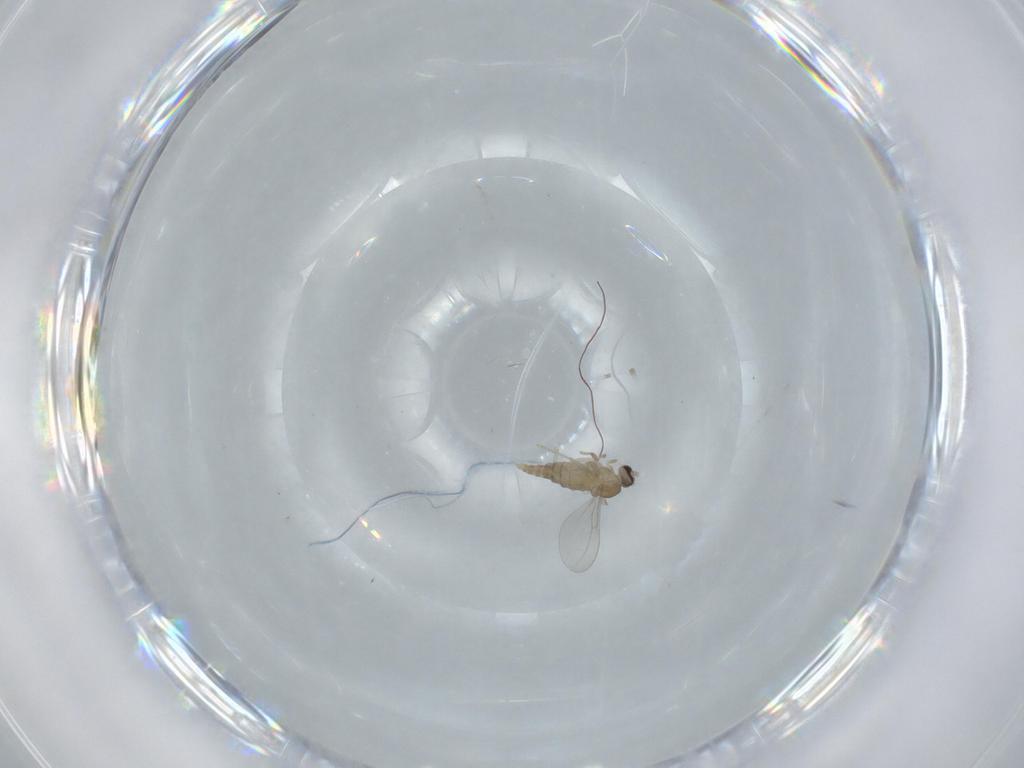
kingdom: Animalia
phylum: Arthropoda
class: Insecta
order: Diptera
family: Cecidomyiidae
